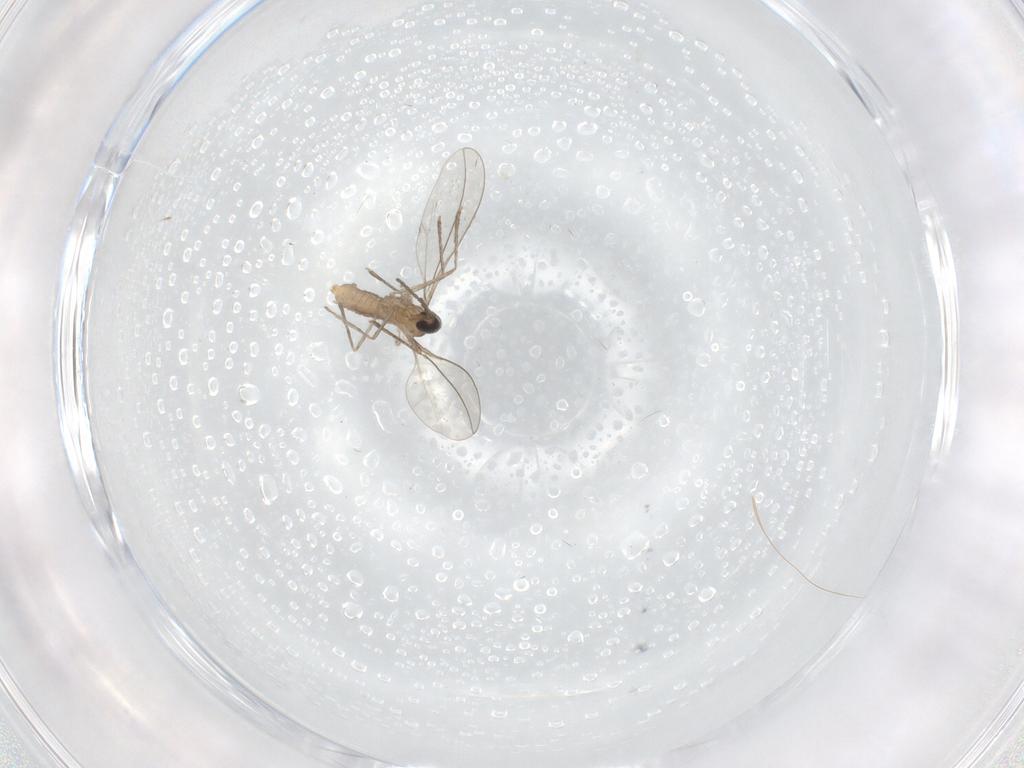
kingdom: Animalia
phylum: Arthropoda
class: Insecta
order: Diptera
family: Cecidomyiidae
